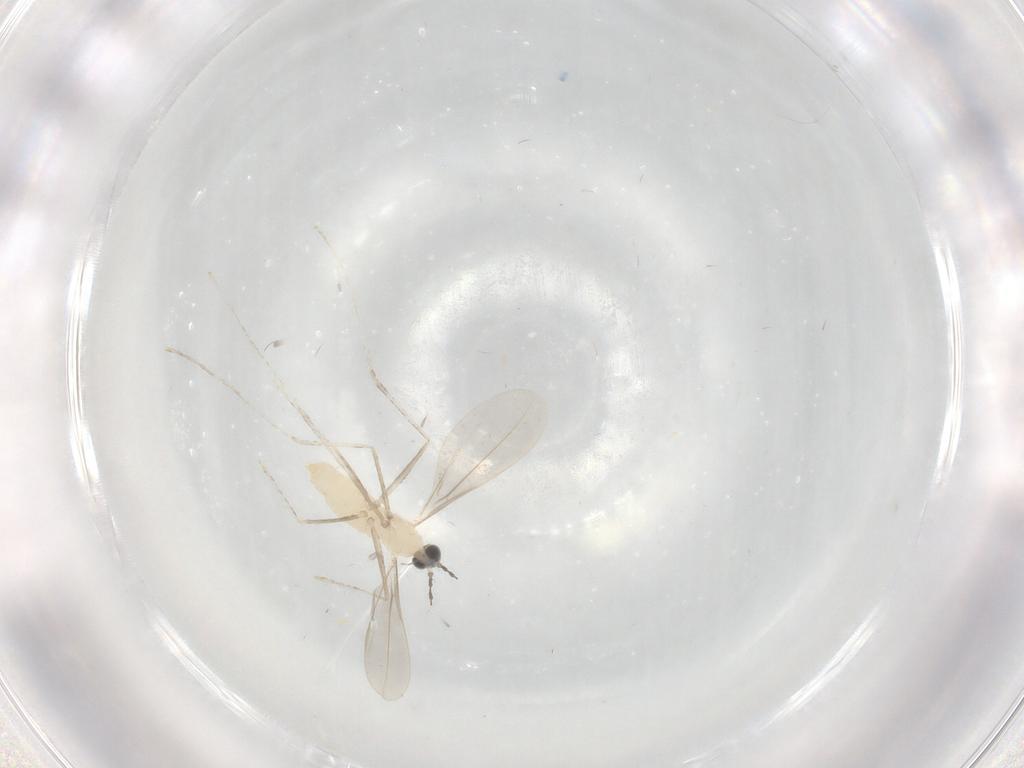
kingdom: Animalia
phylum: Arthropoda
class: Insecta
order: Diptera
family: Cecidomyiidae
